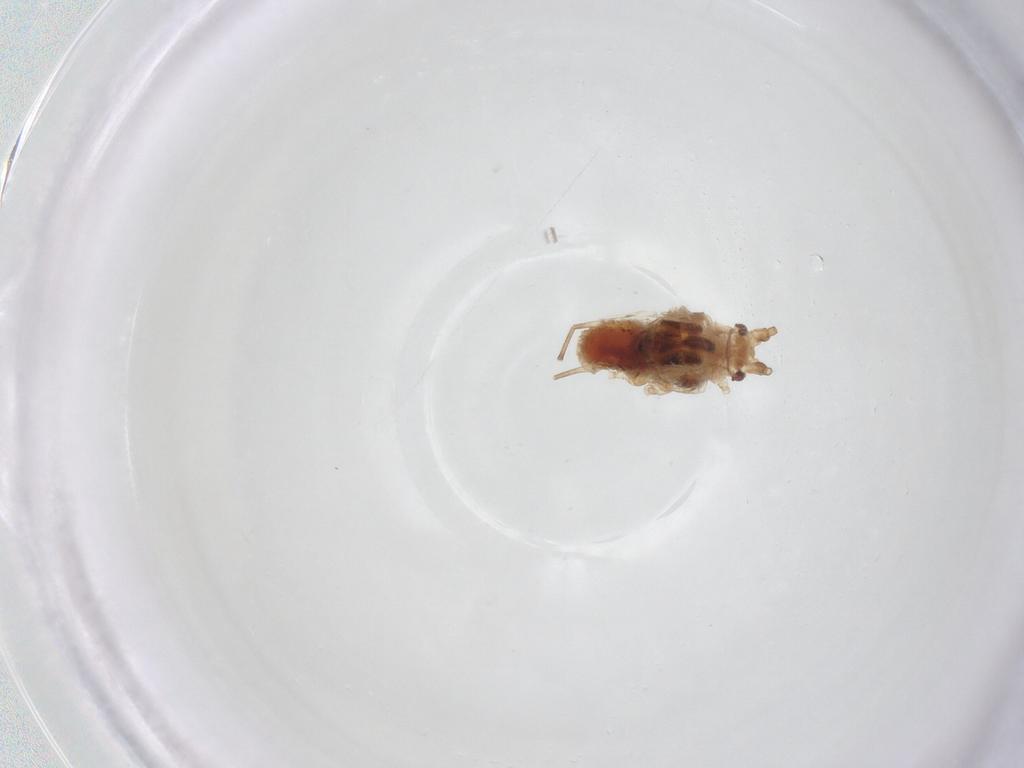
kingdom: Animalia
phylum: Arthropoda
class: Insecta
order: Hemiptera
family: Aphididae
